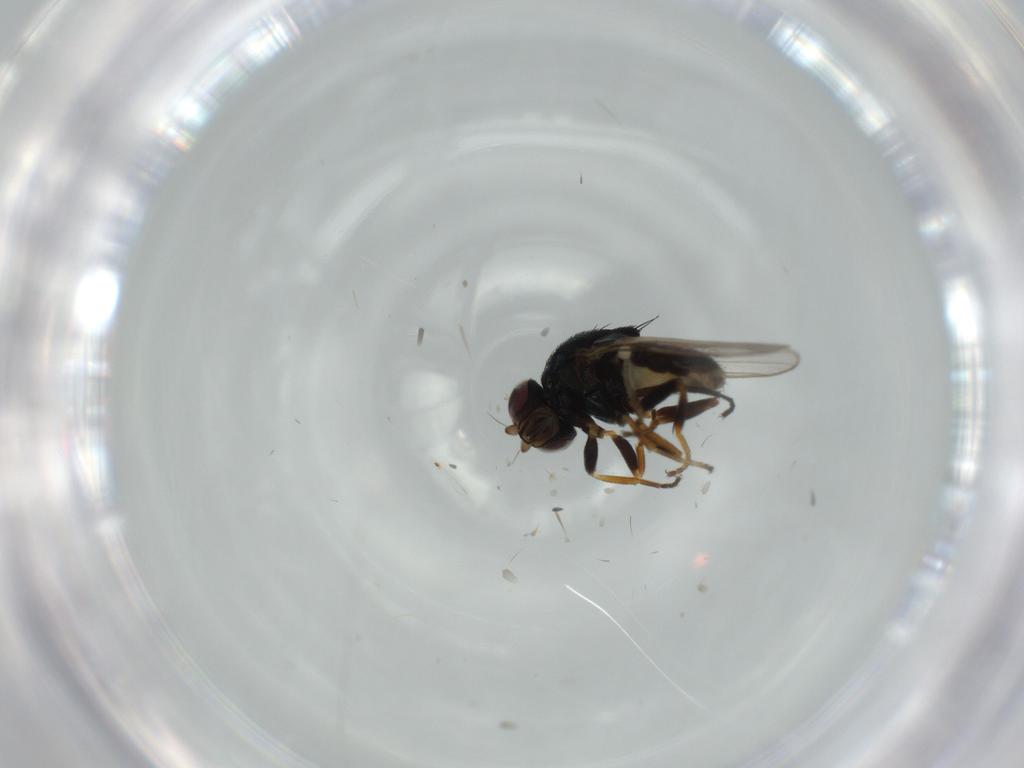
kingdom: Animalia
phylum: Arthropoda
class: Insecta
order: Diptera
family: Chloropidae
